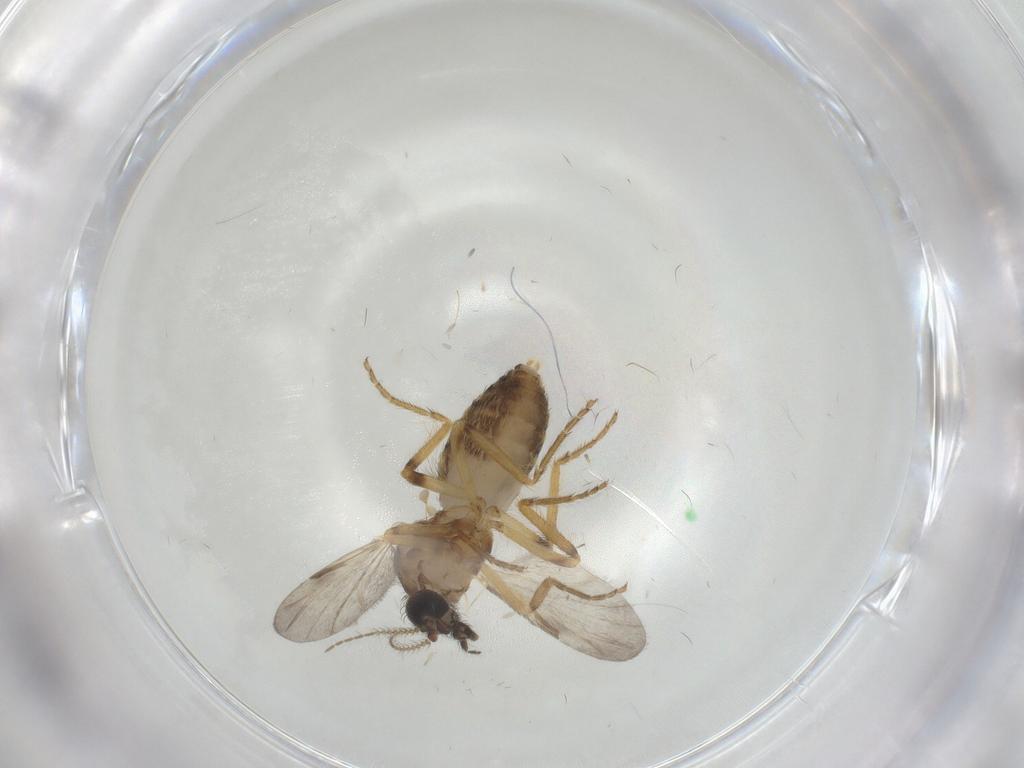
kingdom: Animalia
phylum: Arthropoda
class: Insecta
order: Diptera
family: Ceratopogonidae
